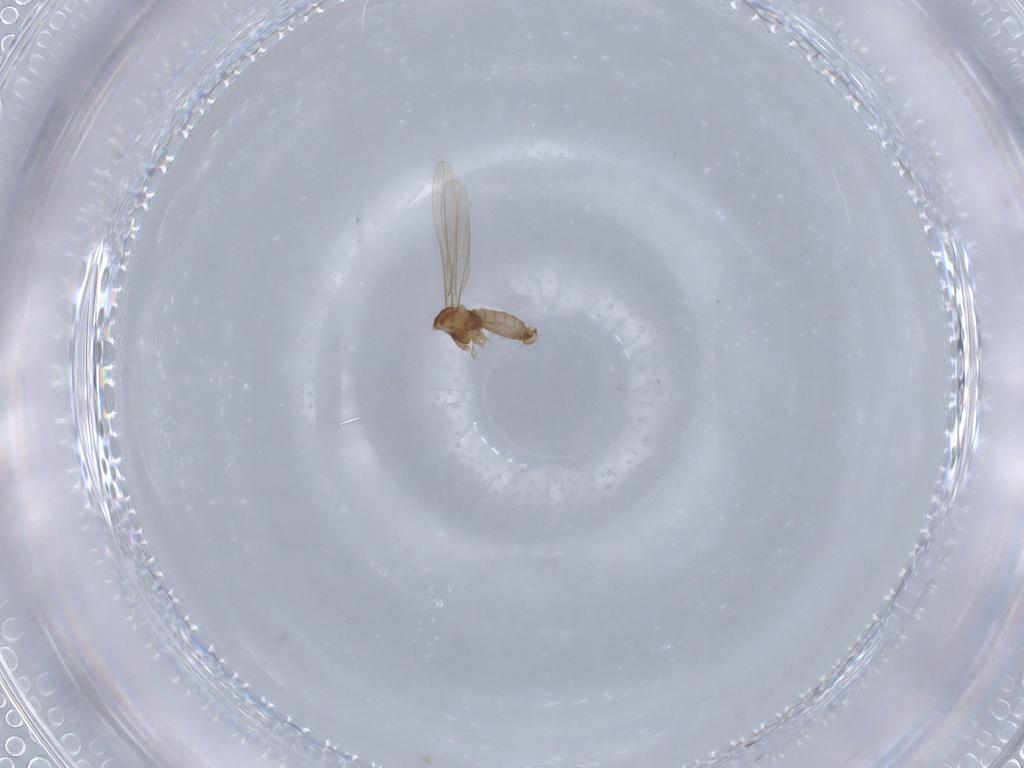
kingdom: Animalia
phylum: Arthropoda
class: Insecta
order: Diptera
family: Cecidomyiidae
